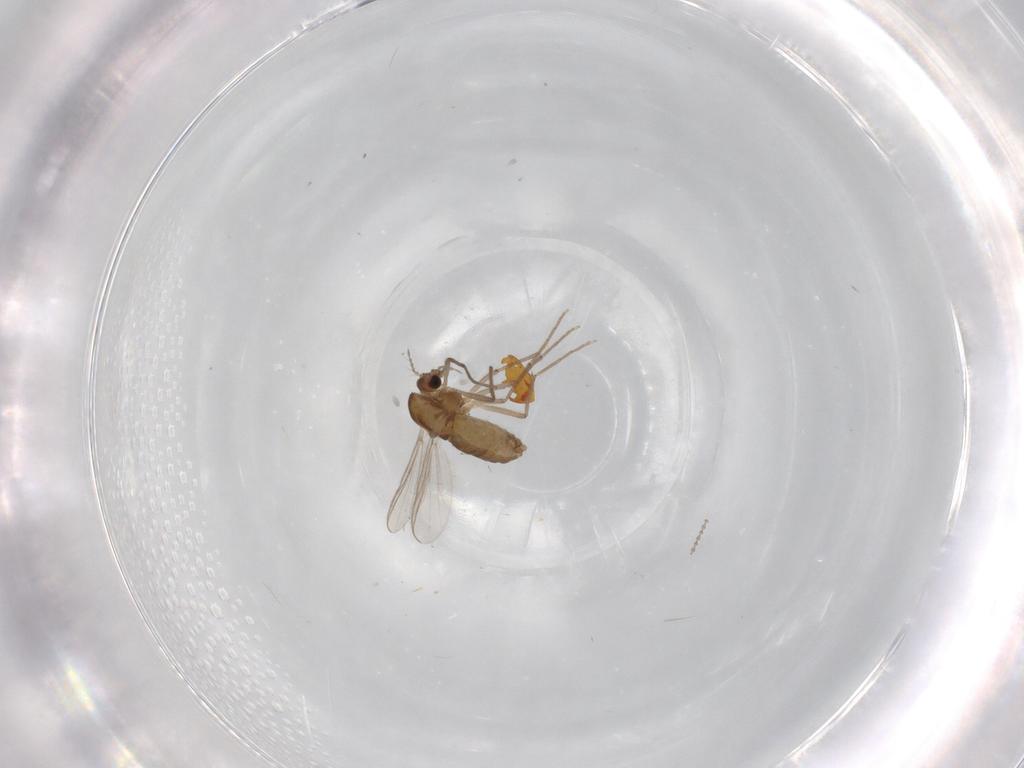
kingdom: Animalia
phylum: Arthropoda
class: Insecta
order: Diptera
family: Chironomidae
